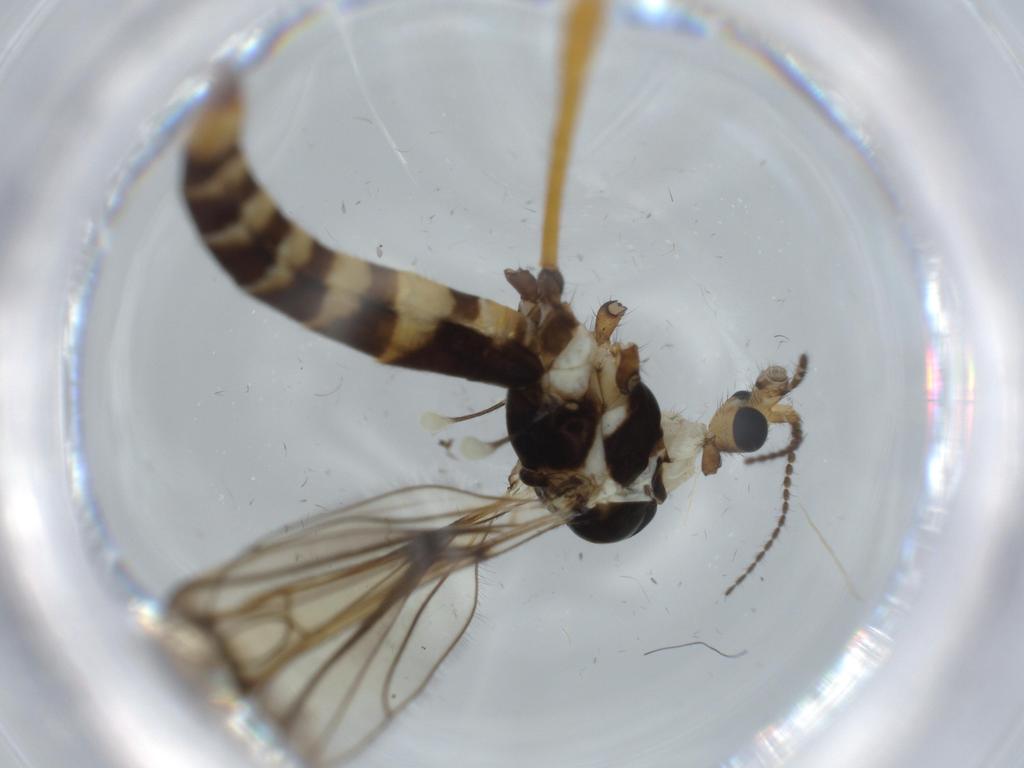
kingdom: Animalia
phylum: Arthropoda
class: Insecta
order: Diptera
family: Limoniidae
